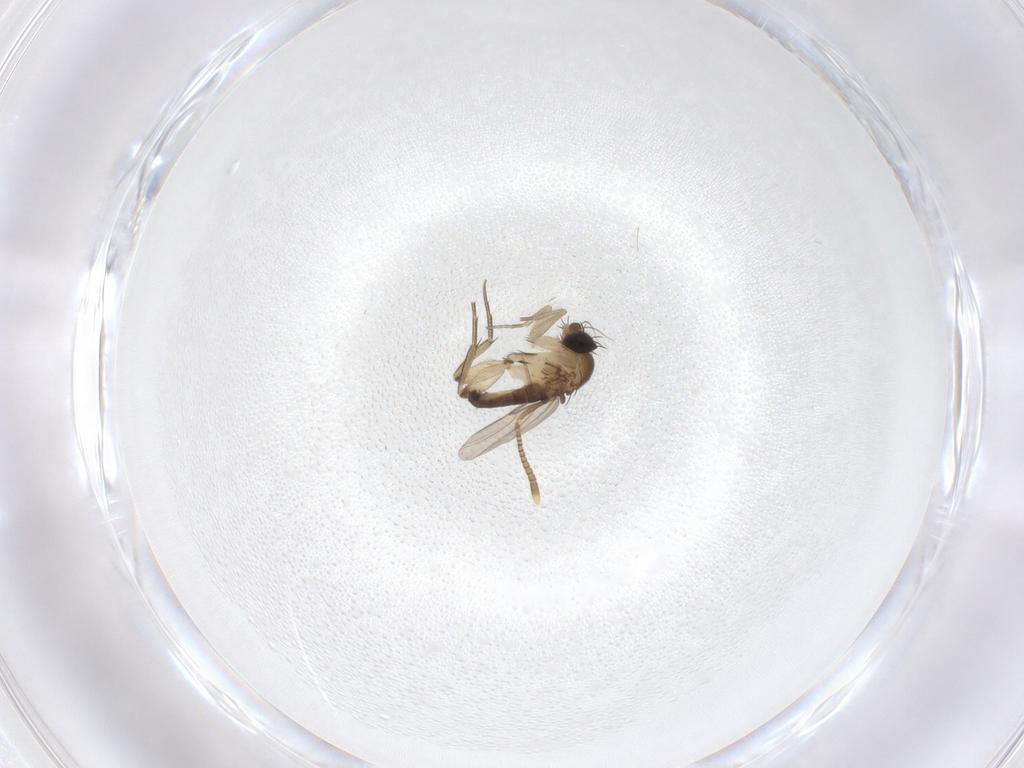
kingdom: Animalia
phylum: Arthropoda
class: Insecta
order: Diptera
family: Phoridae
